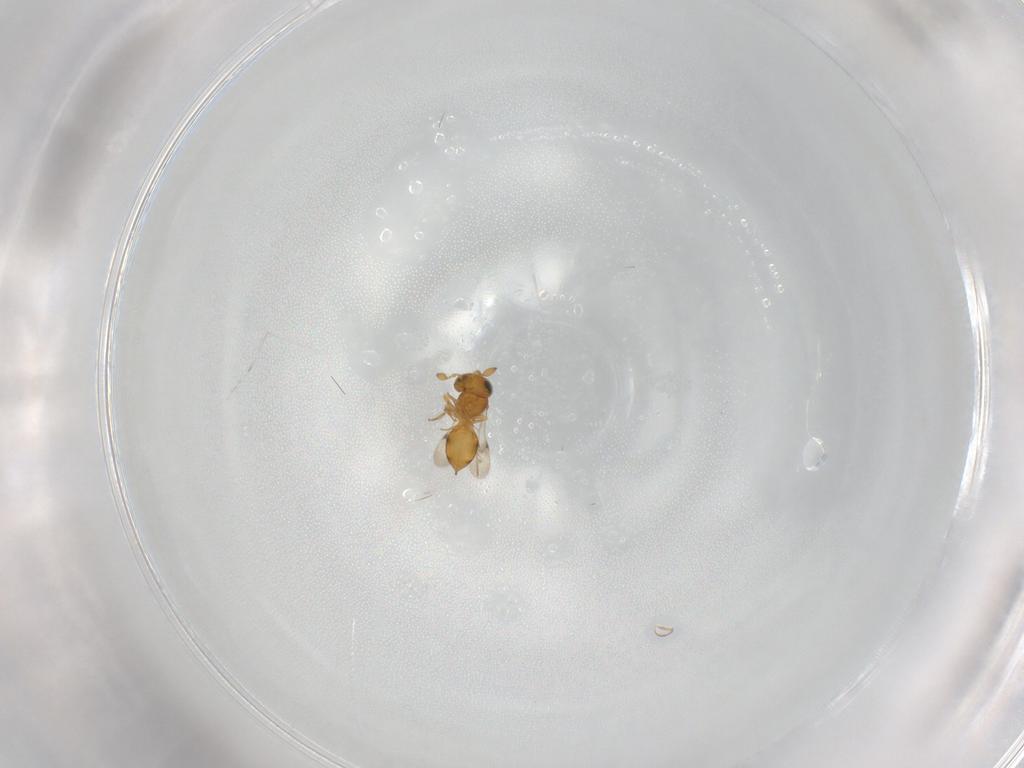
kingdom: Animalia
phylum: Arthropoda
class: Insecta
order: Hymenoptera
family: Scelionidae
